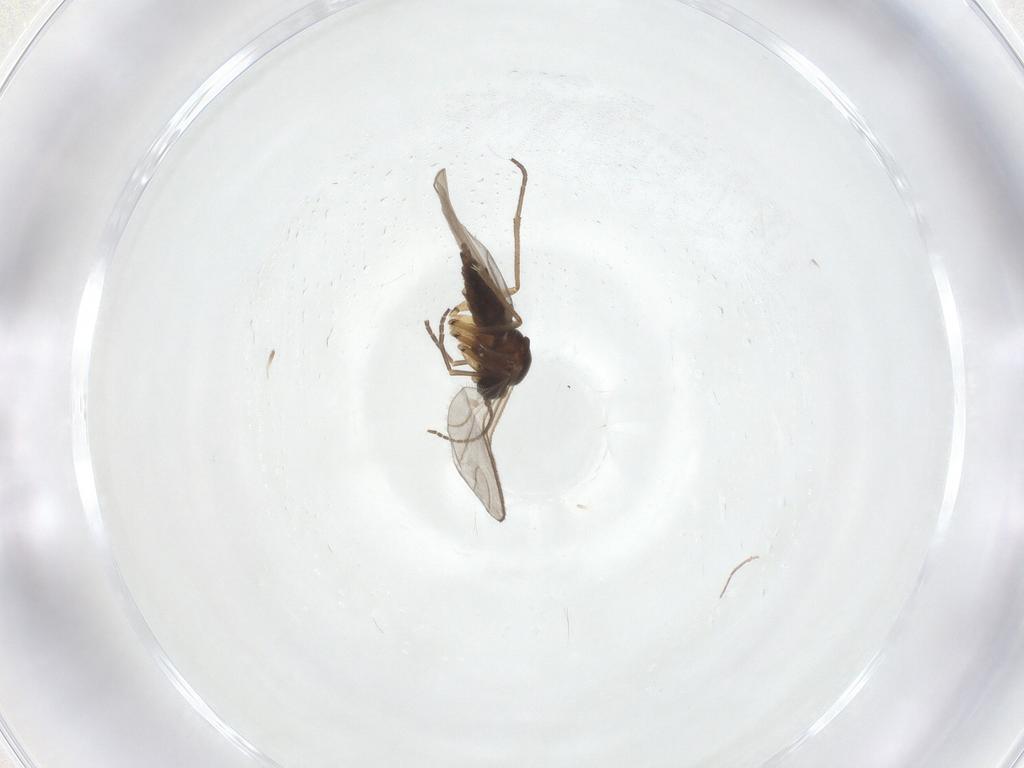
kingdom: Animalia
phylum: Arthropoda
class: Insecta
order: Diptera
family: Sciaridae
